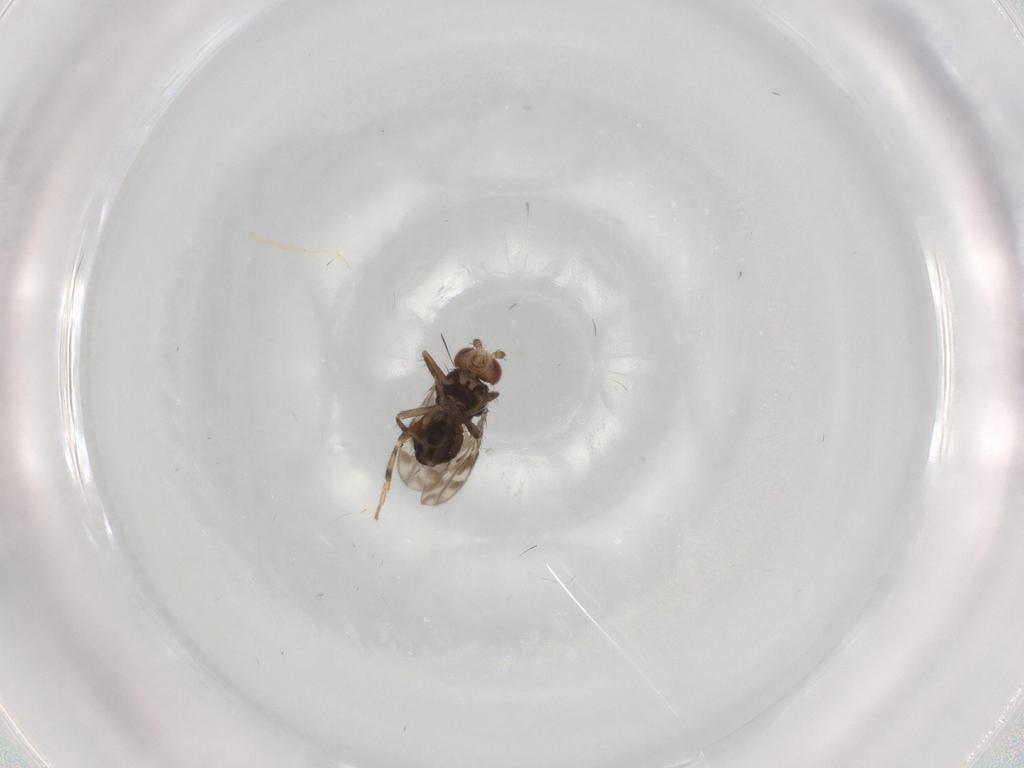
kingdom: Animalia
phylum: Arthropoda
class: Insecta
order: Diptera
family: Sphaeroceridae
